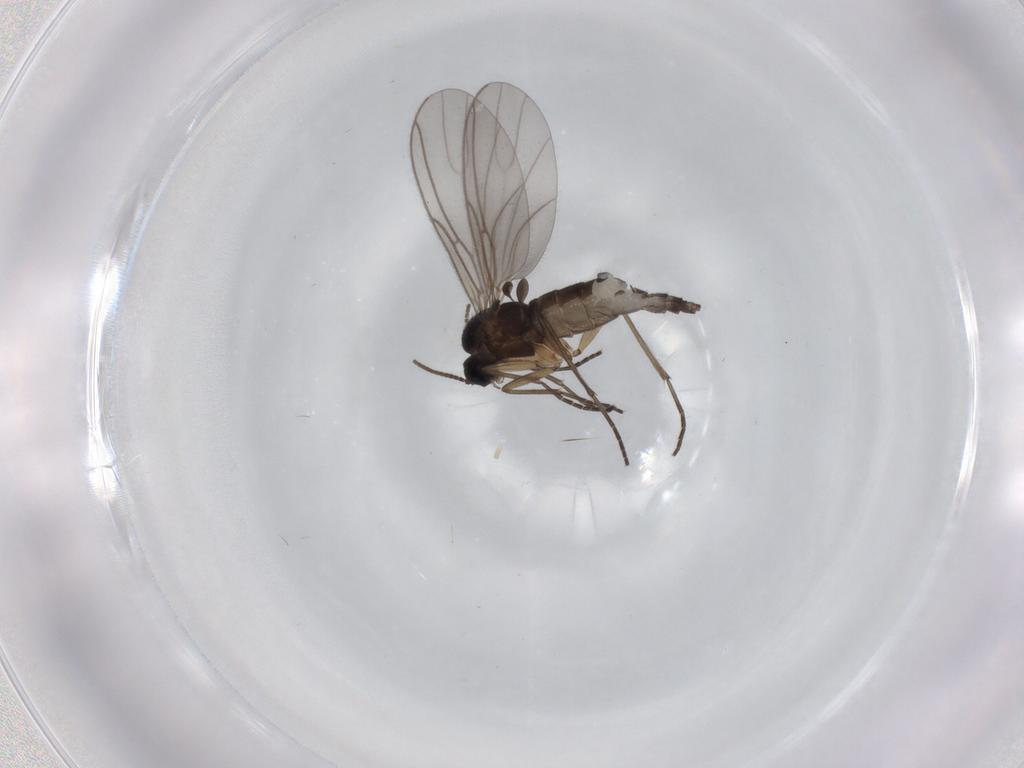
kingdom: Animalia
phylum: Arthropoda
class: Insecta
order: Diptera
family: Sciaridae
